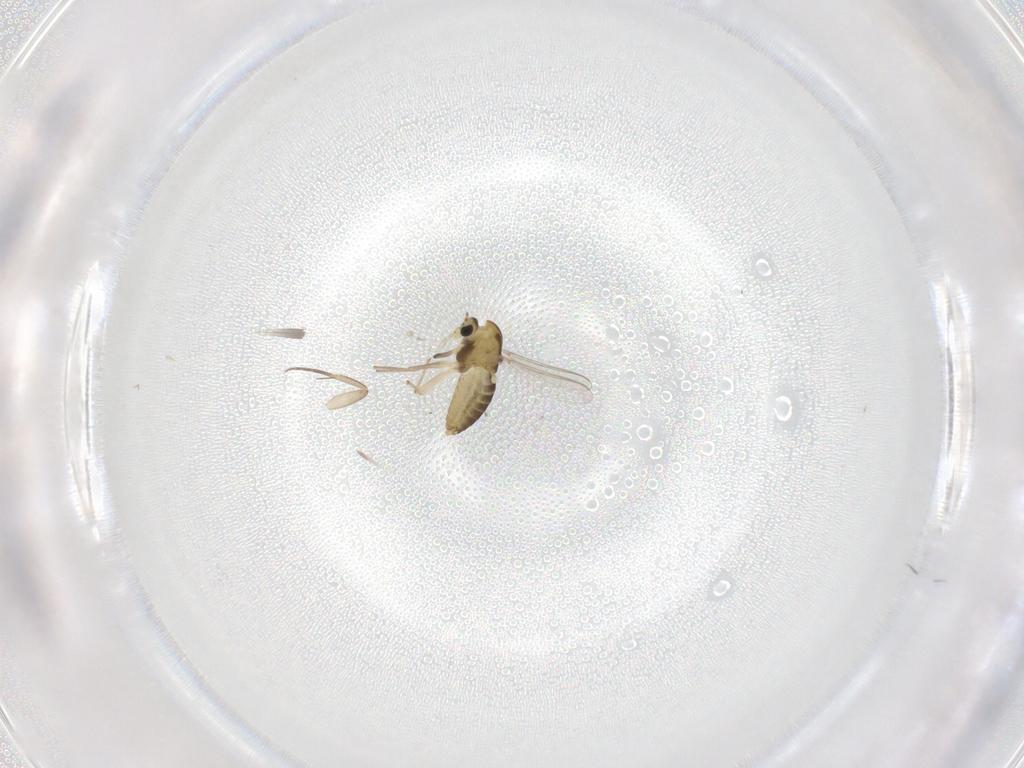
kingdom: Animalia
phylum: Arthropoda
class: Insecta
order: Diptera
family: Chironomidae
